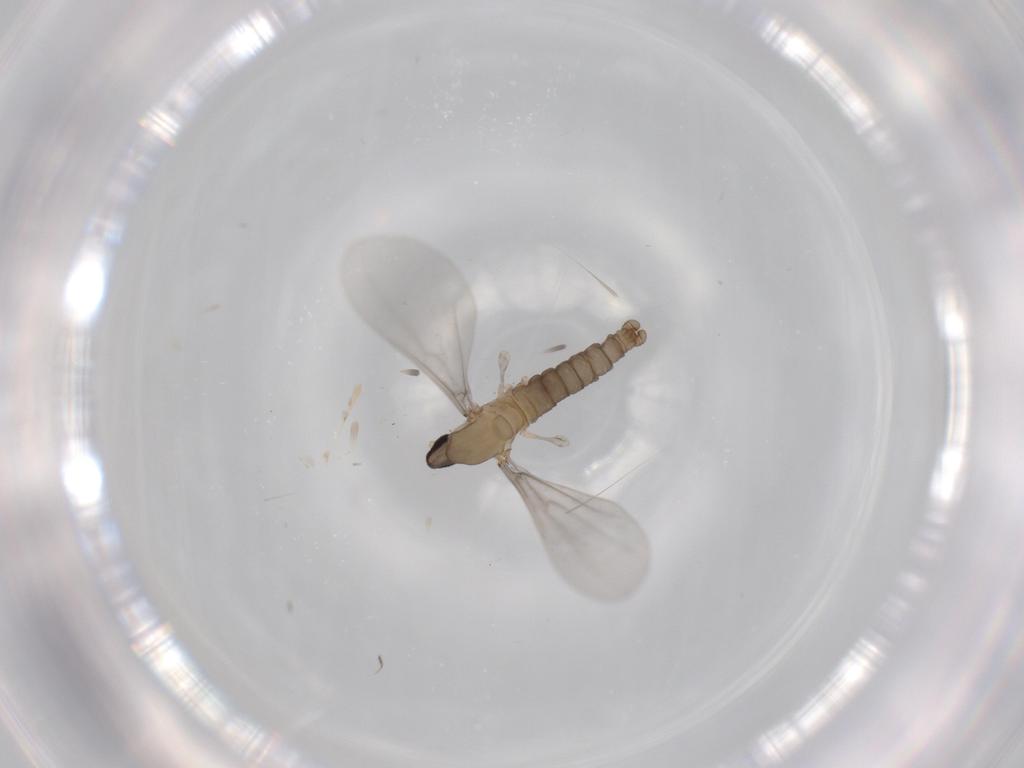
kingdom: Animalia
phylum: Arthropoda
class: Insecta
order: Diptera
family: Cecidomyiidae
